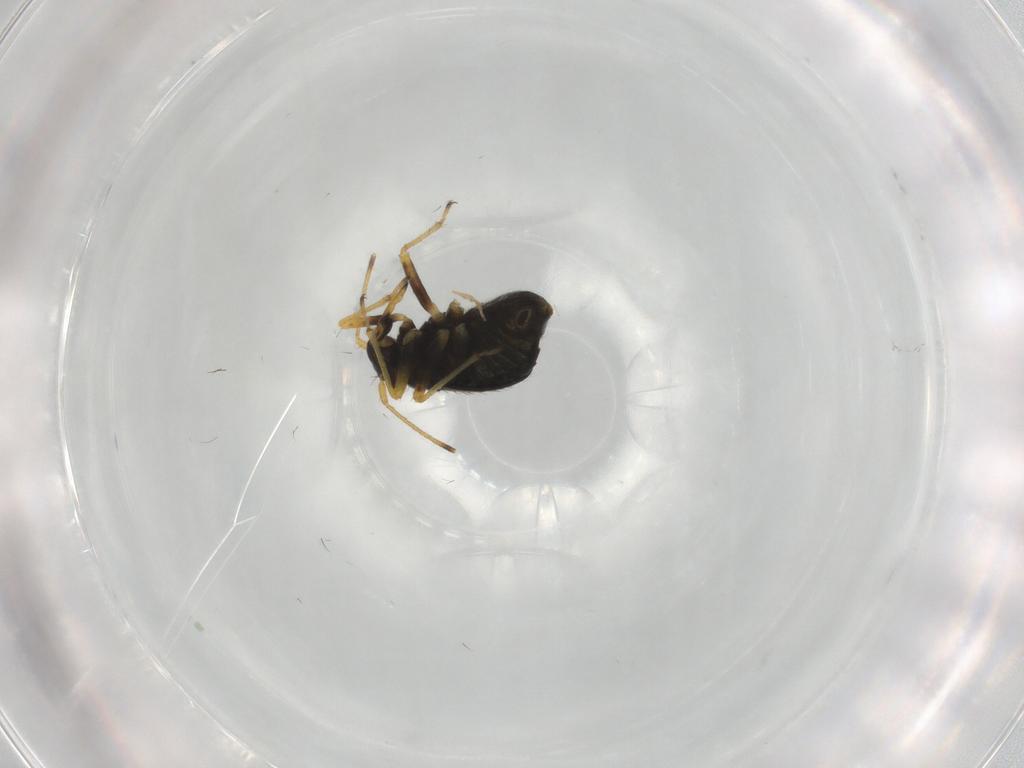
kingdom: Animalia
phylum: Arthropoda
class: Insecta
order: Hemiptera
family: Miridae
